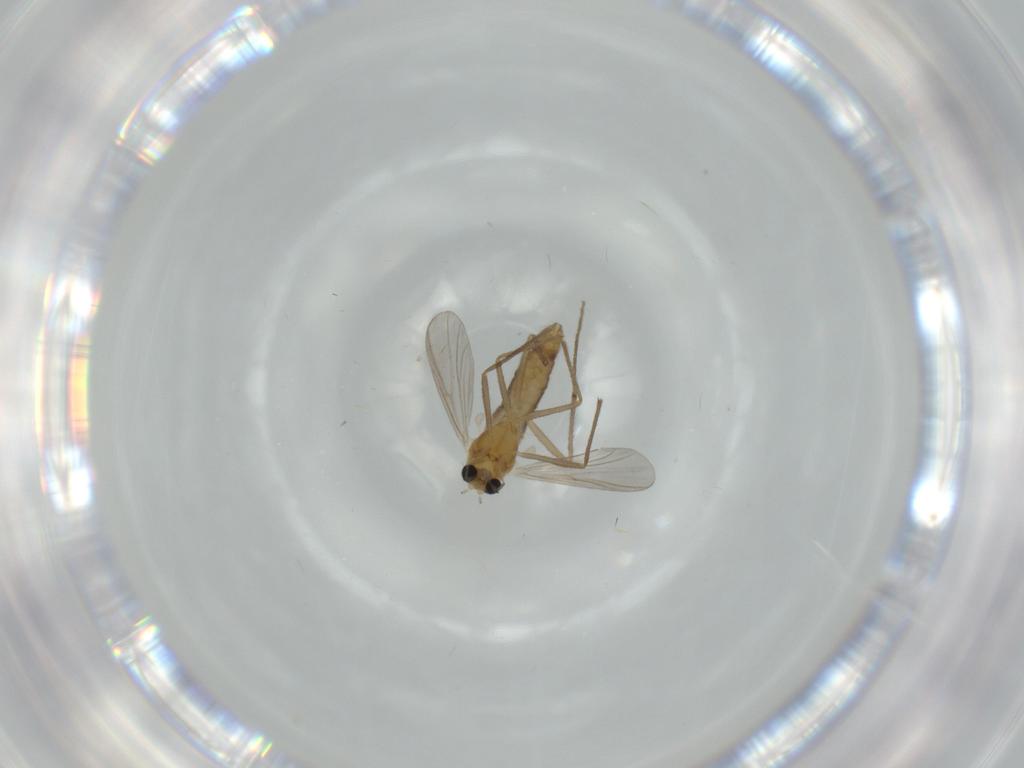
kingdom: Animalia
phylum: Arthropoda
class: Insecta
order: Diptera
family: Chironomidae
